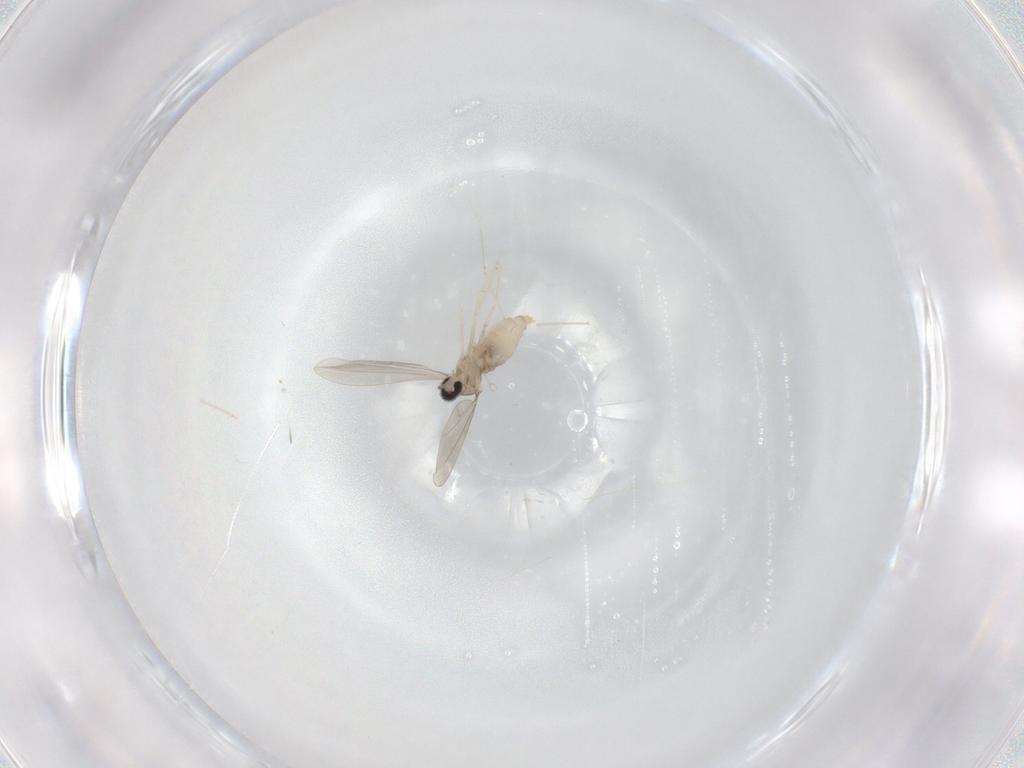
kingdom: Animalia
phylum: Arthropoda
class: Insecta
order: Diptera
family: Cecidomyiidae
